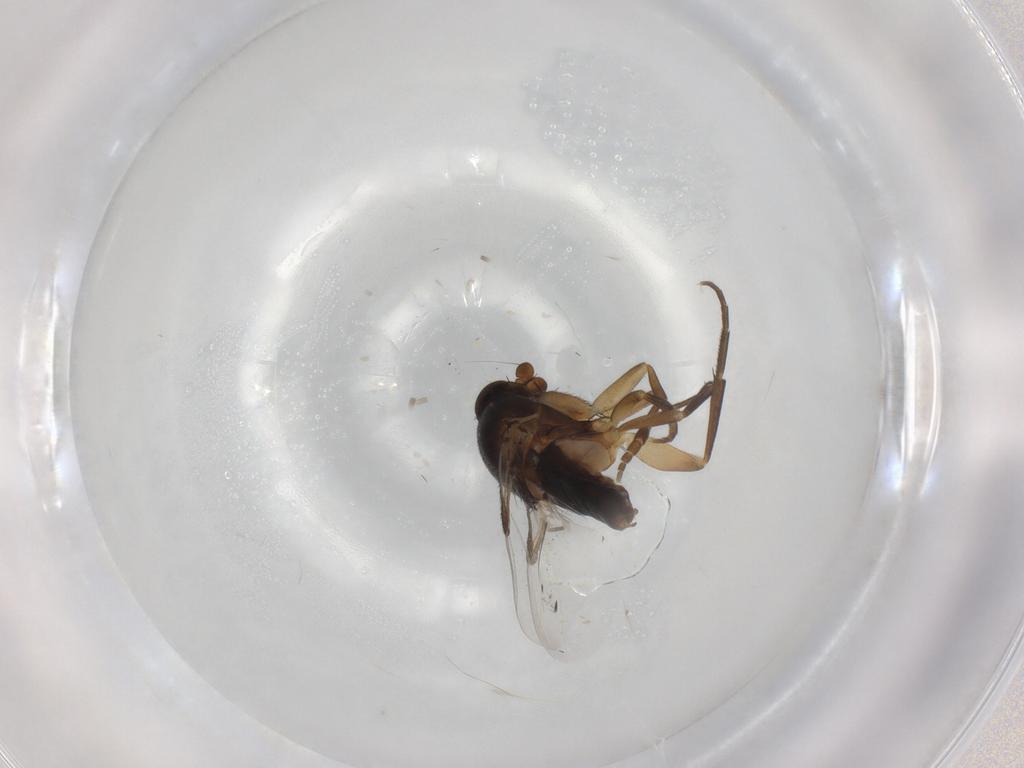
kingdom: Animalia
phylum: Arthropoda
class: Insecta
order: Diptera
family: Phoridae
